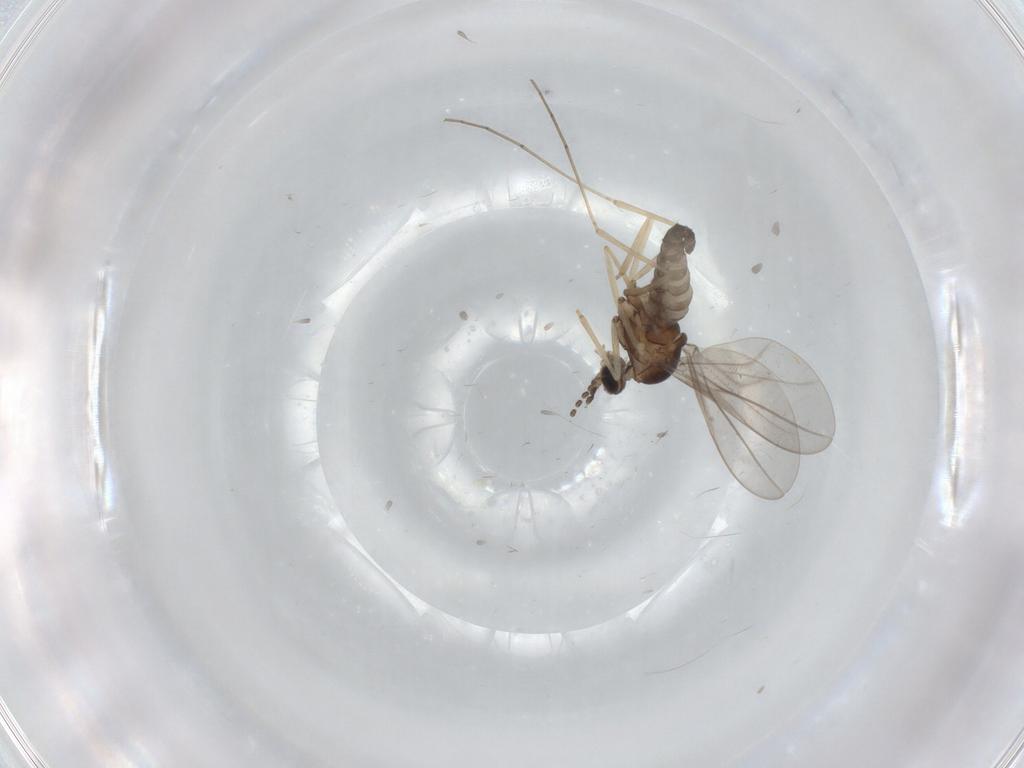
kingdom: Animalia
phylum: Arthropoda
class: Insecta
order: Diptera
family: Cecidomyiidae
